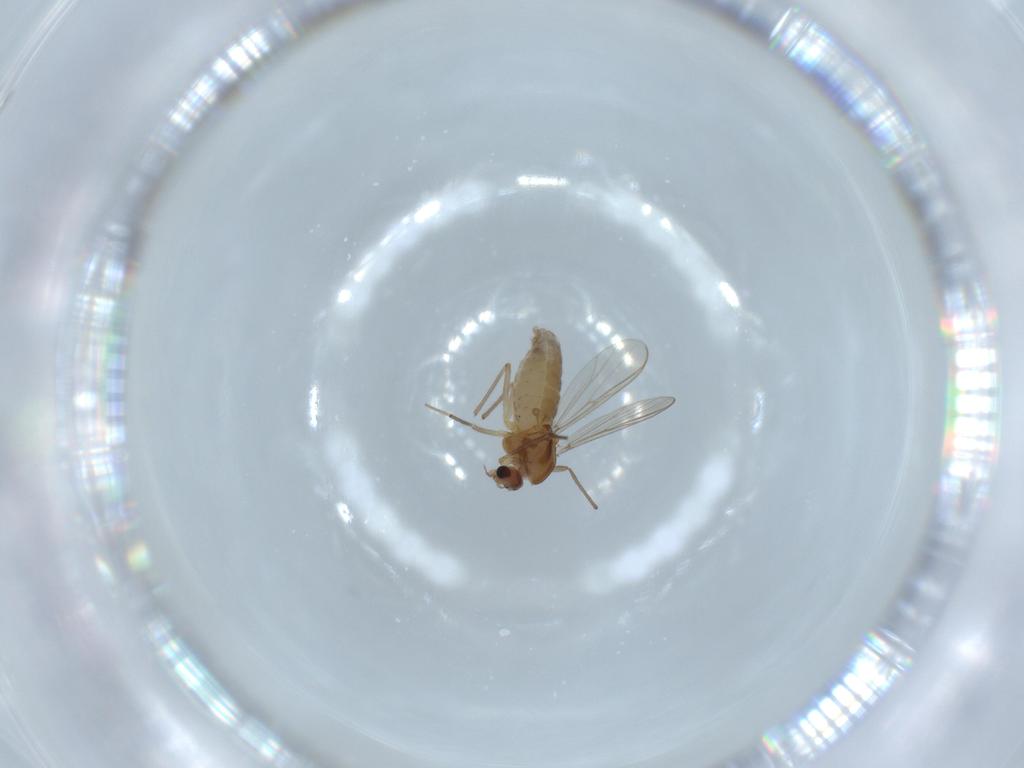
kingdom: Animalia
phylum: Arthropoda
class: Insecta
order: Diptera
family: Chironomidae
